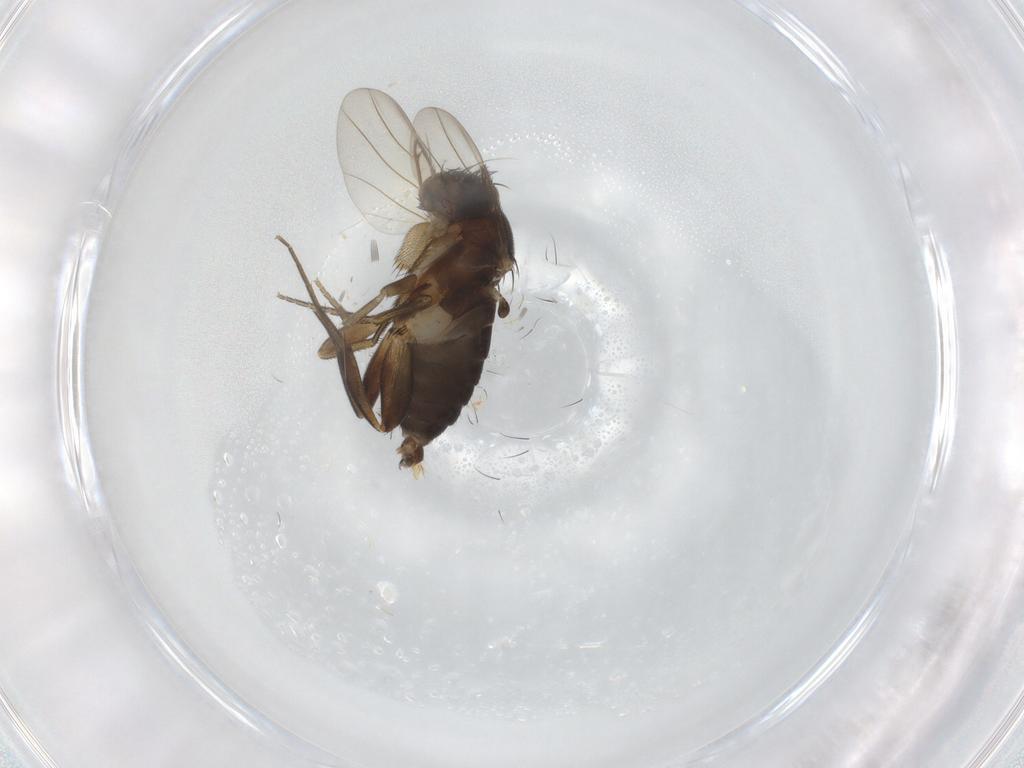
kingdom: Animalia
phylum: Arthropoda
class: Insecta
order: Diptera
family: Phoridae
